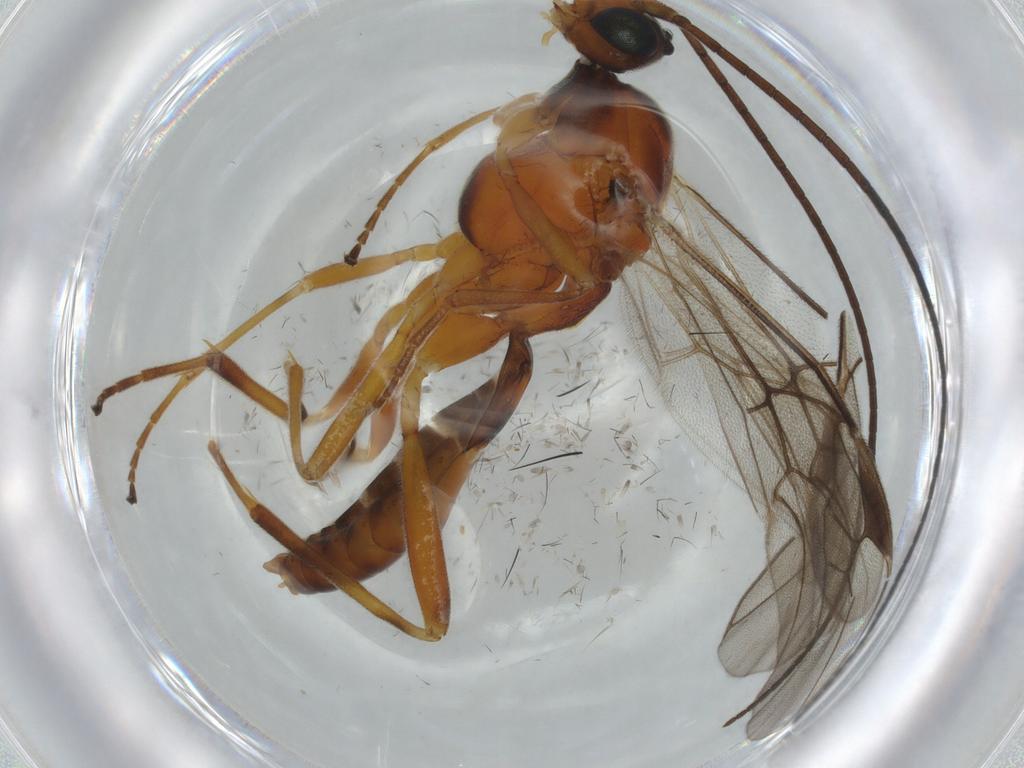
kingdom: Animalia
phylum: Arthropoda
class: Insecta
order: Hymenoptera
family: Braconidae
